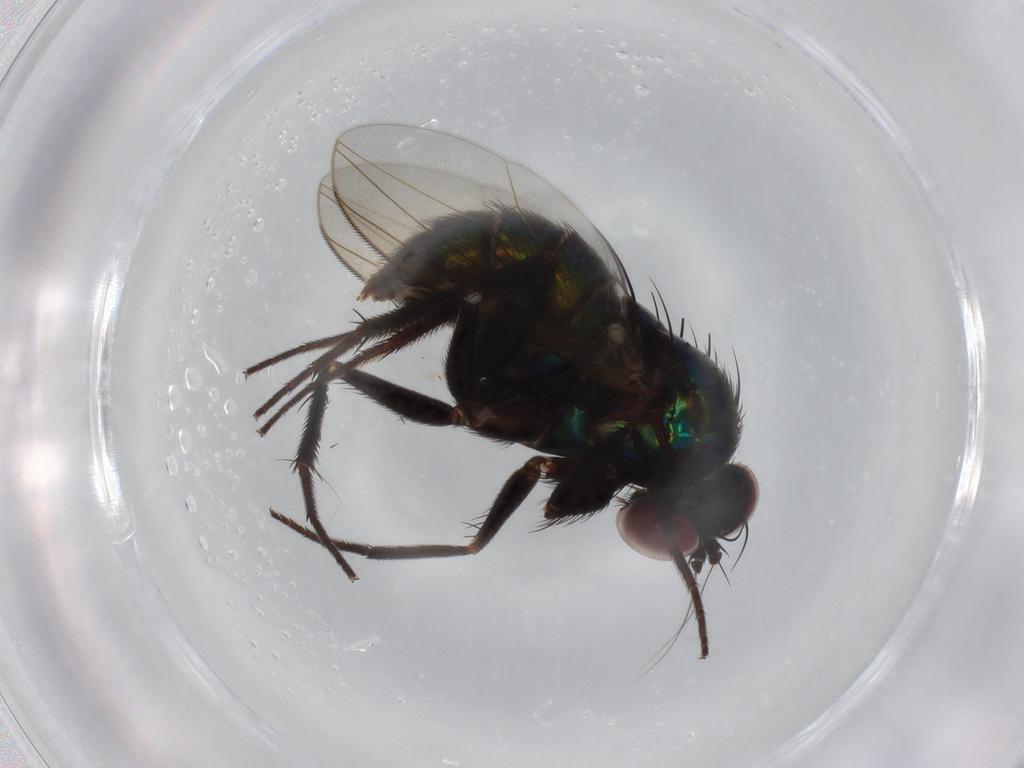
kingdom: Animalia
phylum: Arthropoda
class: Insecta
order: Diptera
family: Dolichopodidae
